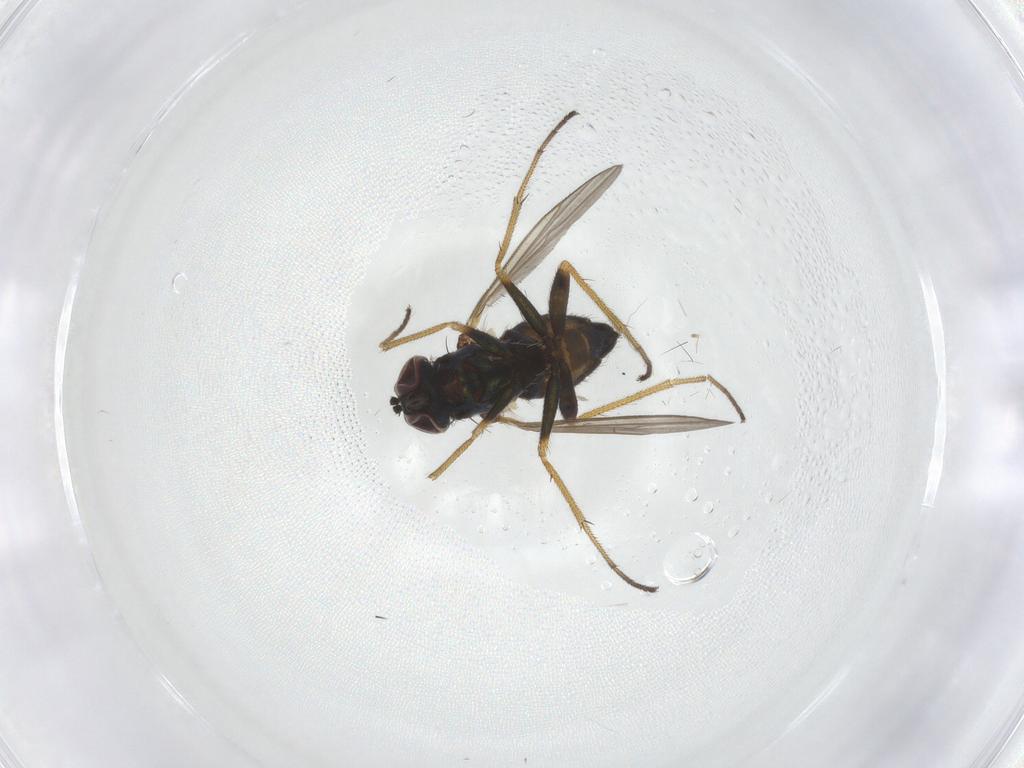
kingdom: Animalia
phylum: Arthropoda
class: Insecta
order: Diptera
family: Dolichopodidae
